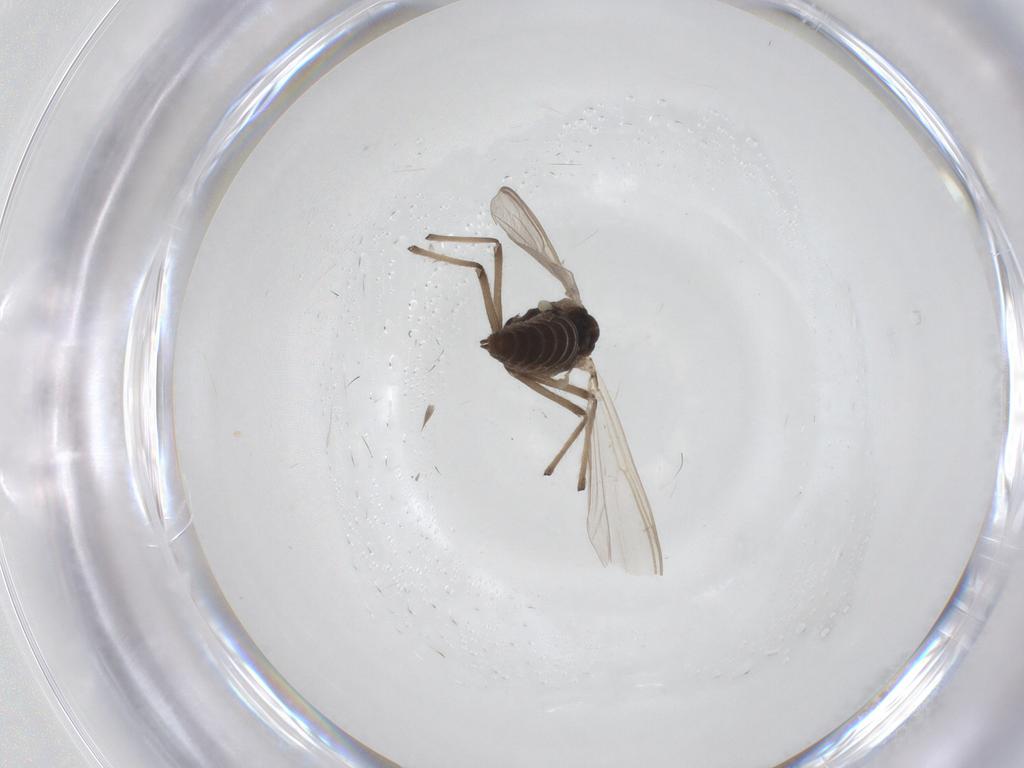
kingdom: Animalia
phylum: Arthropoda
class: Insecta
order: Diptera
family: Chironomidae
